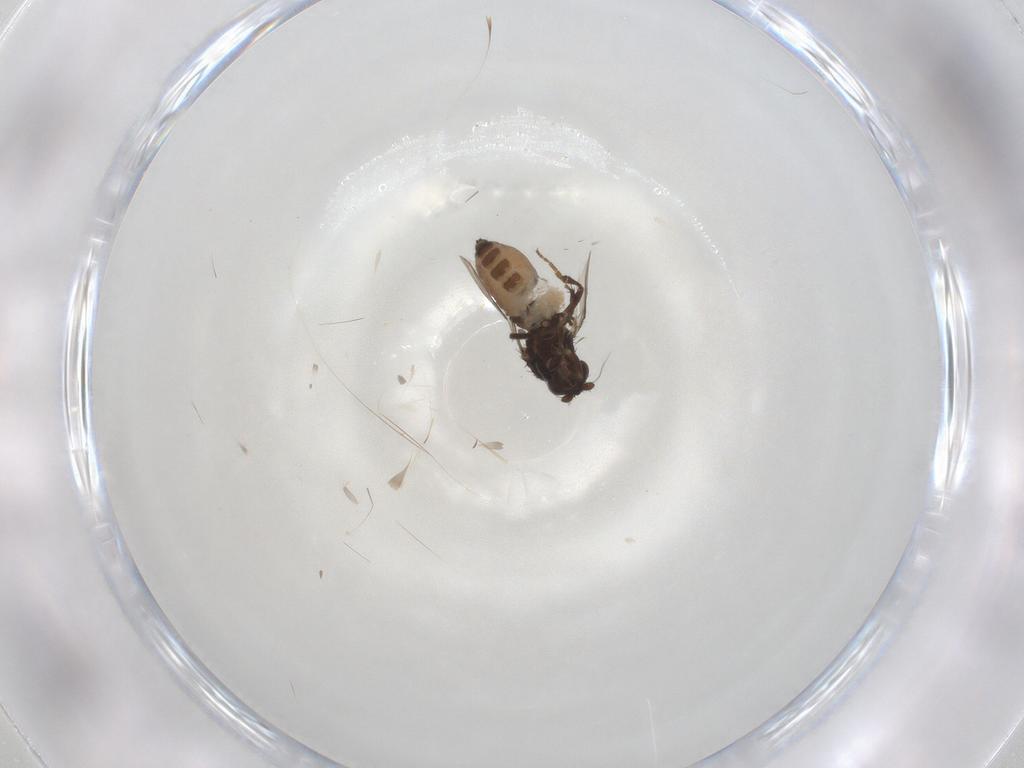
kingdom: Animalia
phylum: Arthropoda
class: Insecta
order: Diptera
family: Sphaeroceridae
